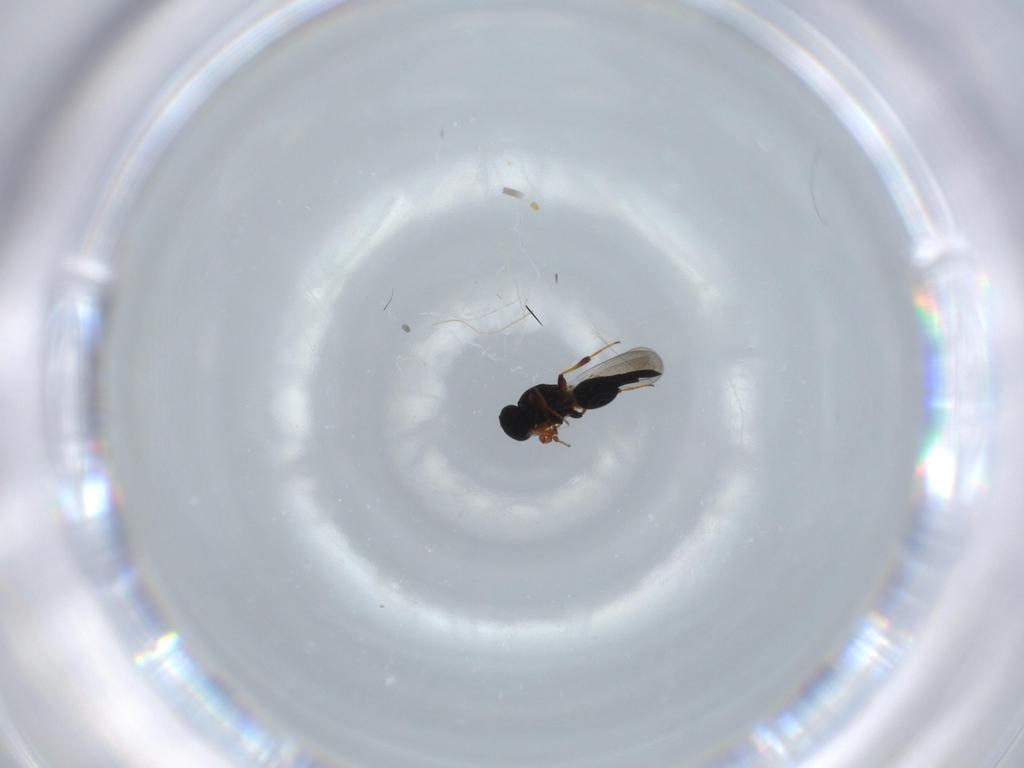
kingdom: Animalia
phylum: Arthropoda
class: Insecta
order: Hymenoptera
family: Platygastridae
